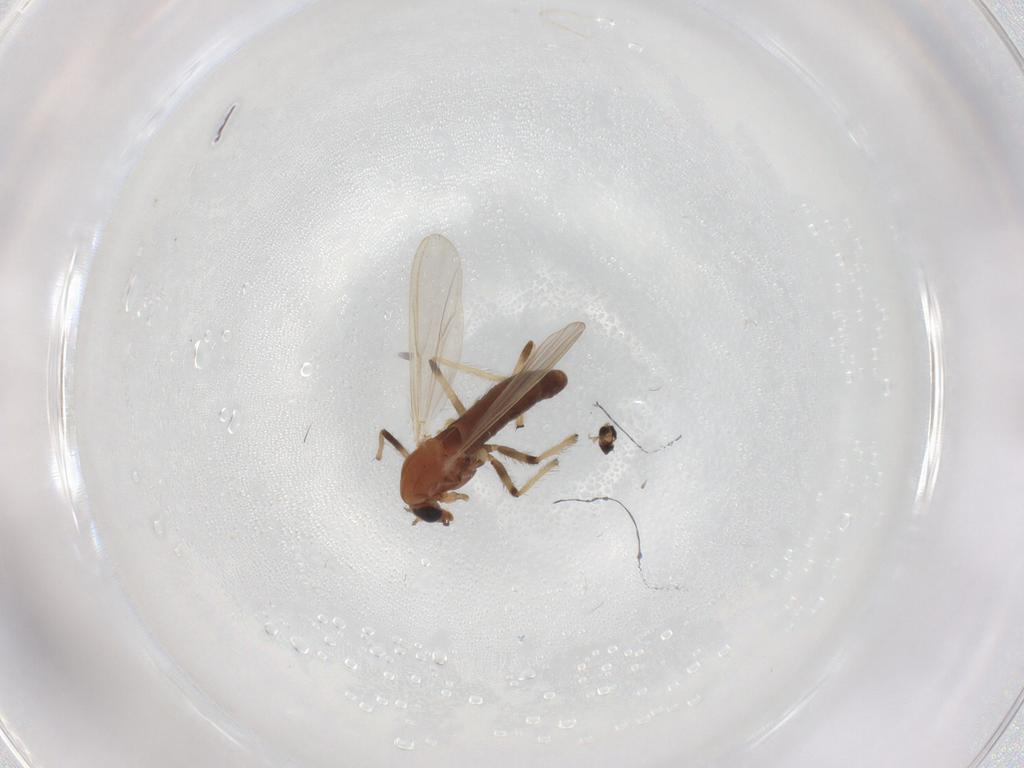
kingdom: Animalia
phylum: Arthropoda
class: Insecta
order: Diptera
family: Chironomidae
